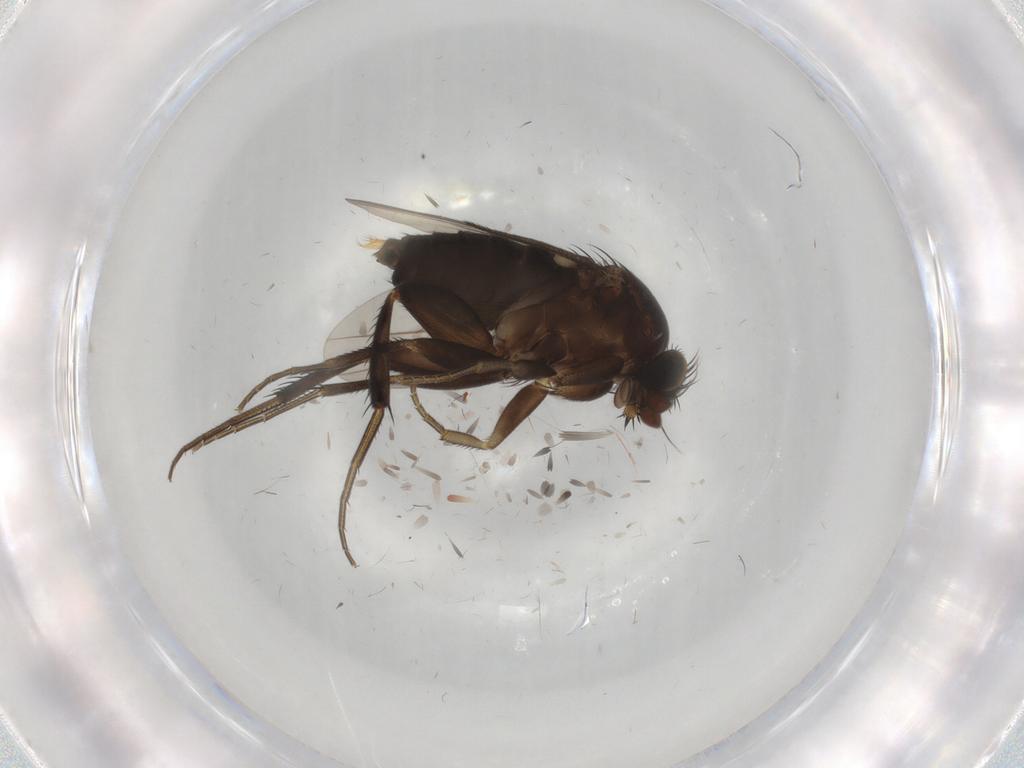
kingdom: Animalia
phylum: Arthropoda
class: Insecta
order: Diptera
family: Phoridae
